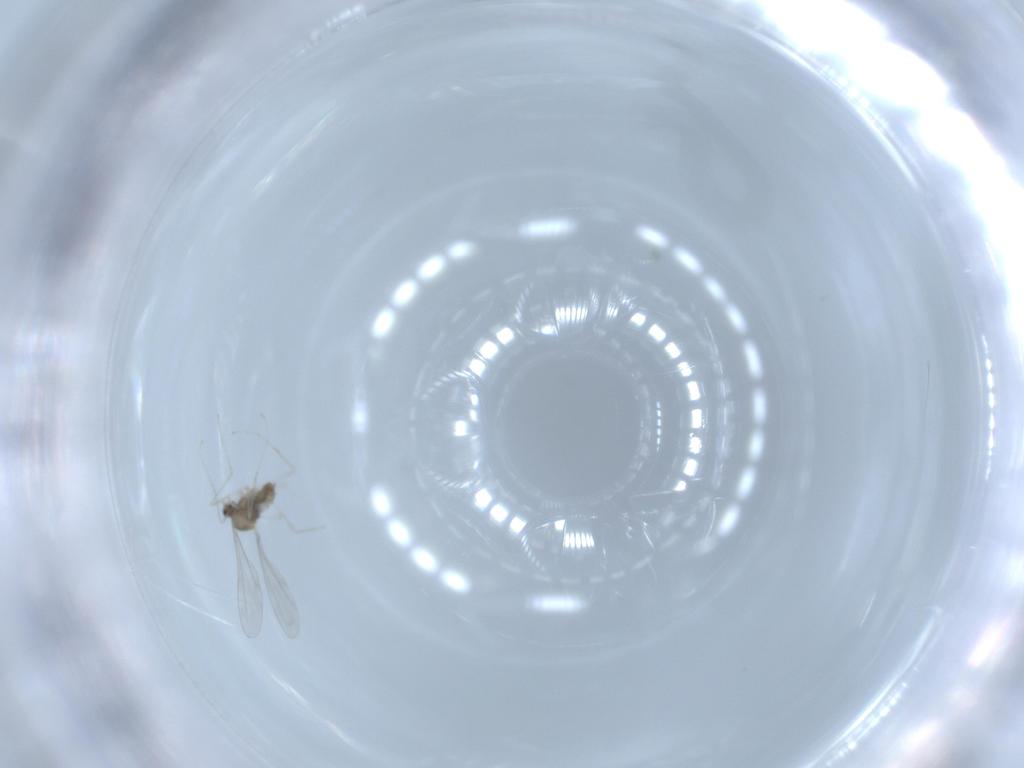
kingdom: Animalia
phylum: Arthropoda
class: Insecta
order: Diptera
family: Cecidomyiidae
